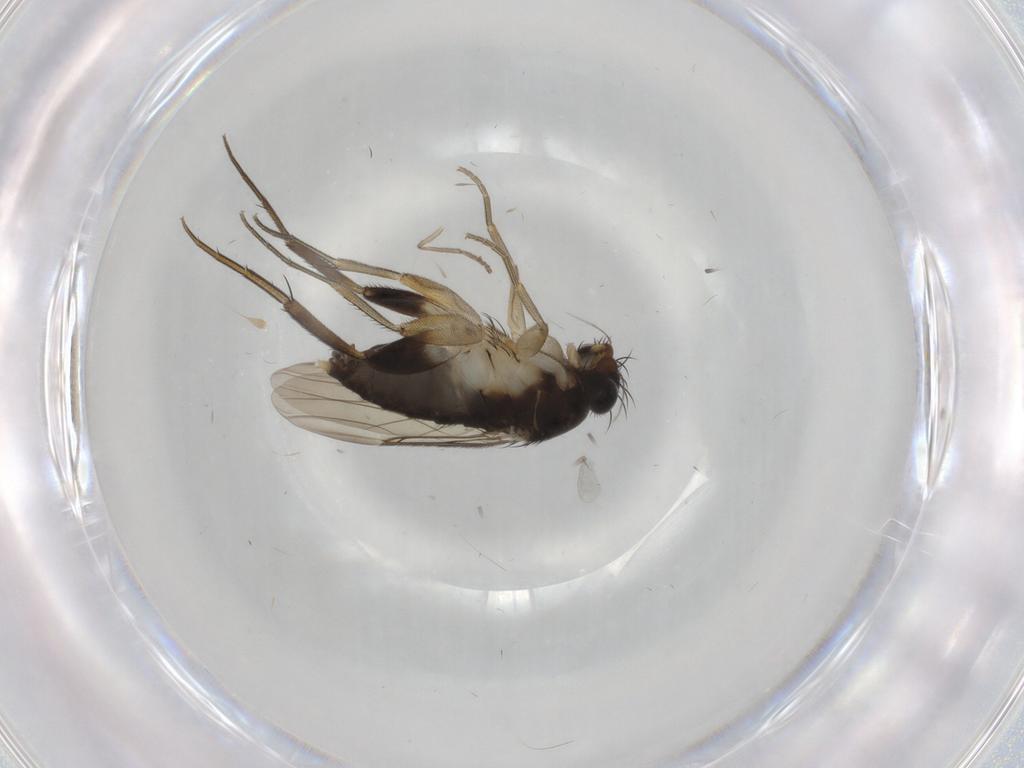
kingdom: Animalia
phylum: Arthropoda
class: Insecta
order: Diptera
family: Phoridae
